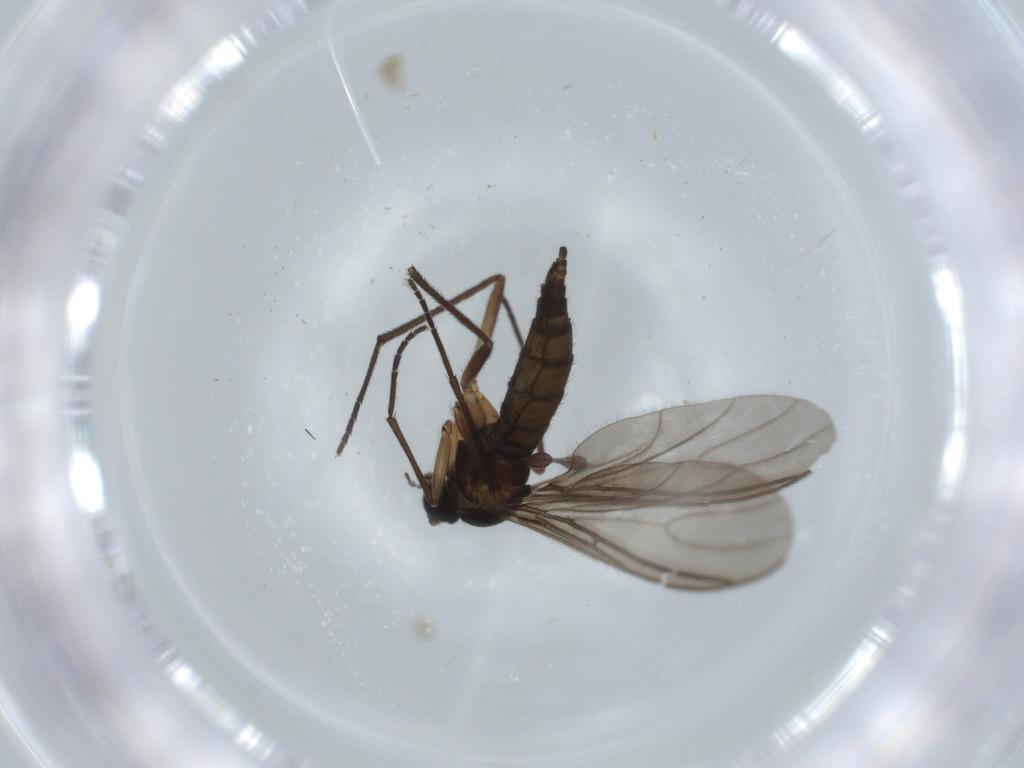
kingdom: Animalia
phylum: Arthropoda
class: Insecta
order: Diptera
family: Sciaridae
